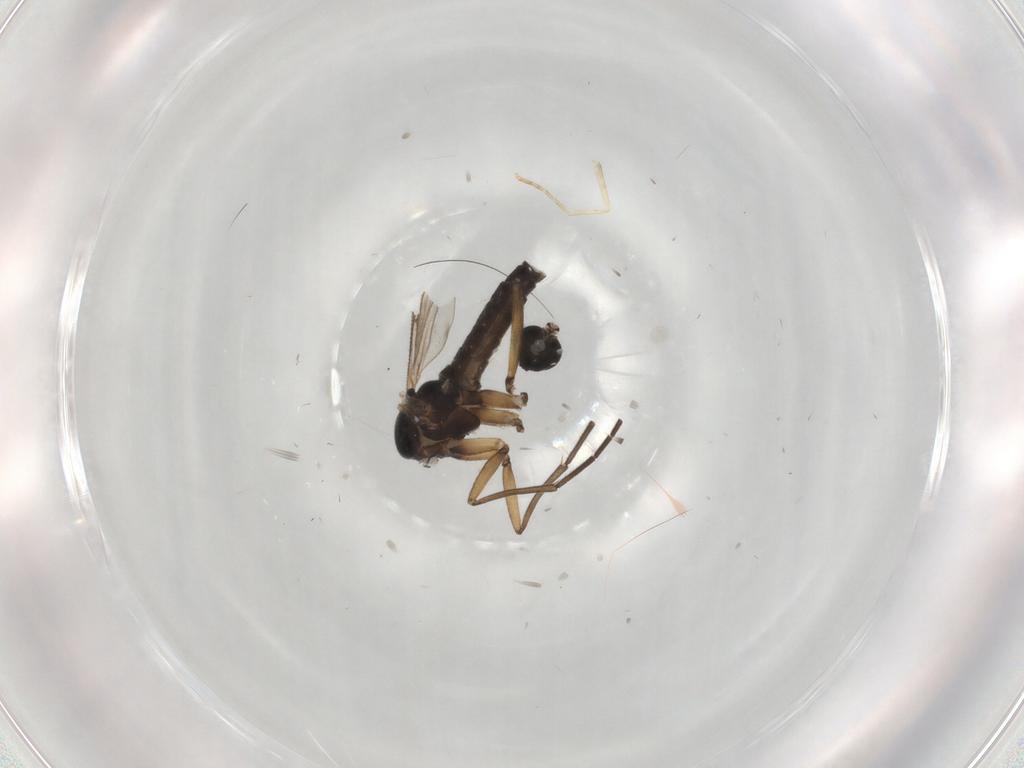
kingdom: Animalia
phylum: Arthropoda
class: Insecta
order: Diptera
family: Sciaridae
